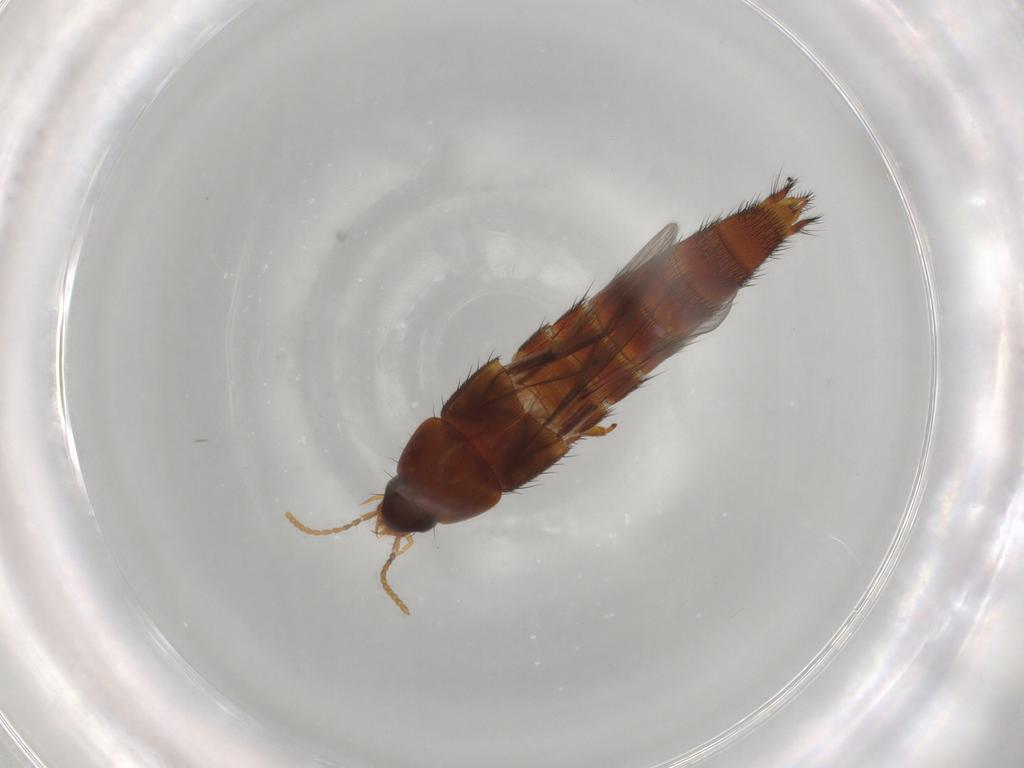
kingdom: Animalia
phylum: Arthropoda
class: Insecta
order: Coleoptera
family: Staphylinidae
